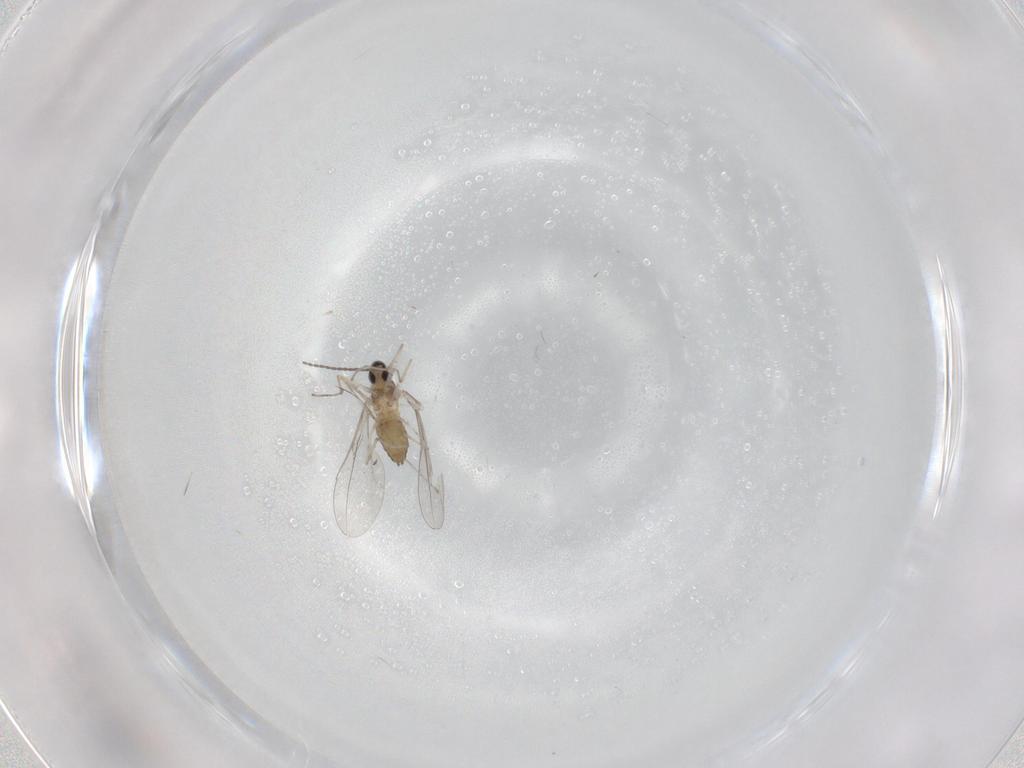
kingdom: Animalia
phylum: Arthropoda
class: Insecta
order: Diptera
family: Cecidomyiidae
